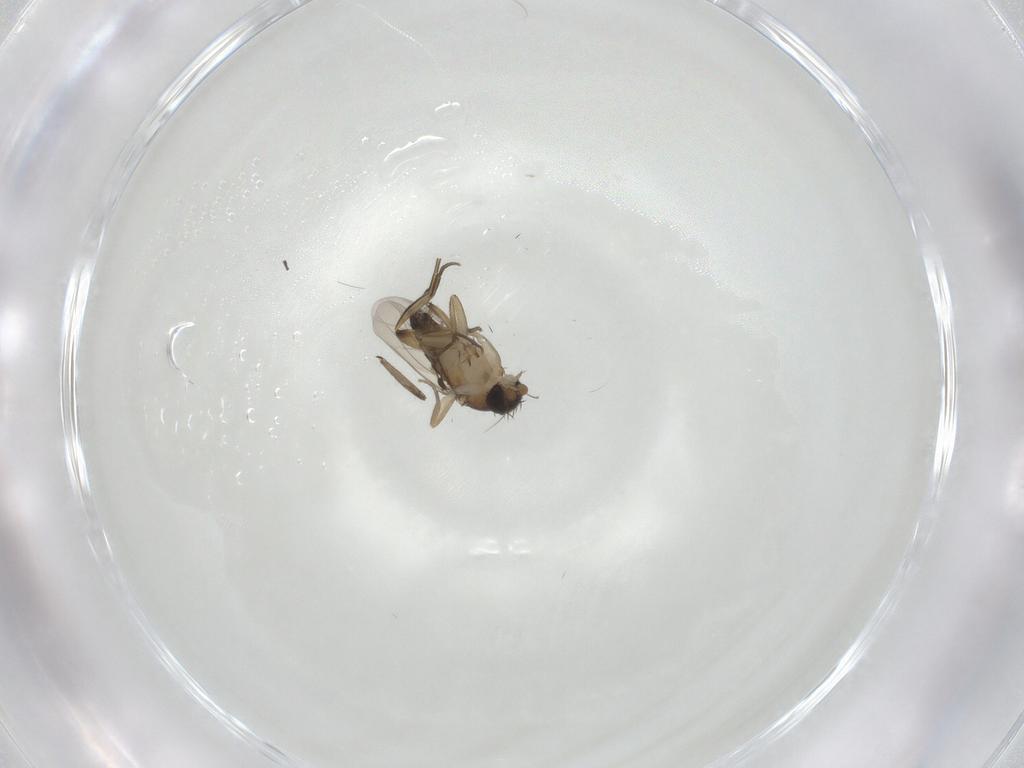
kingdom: Animalia
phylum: Arthropoda
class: Insecta
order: Diptera
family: Phoridae
